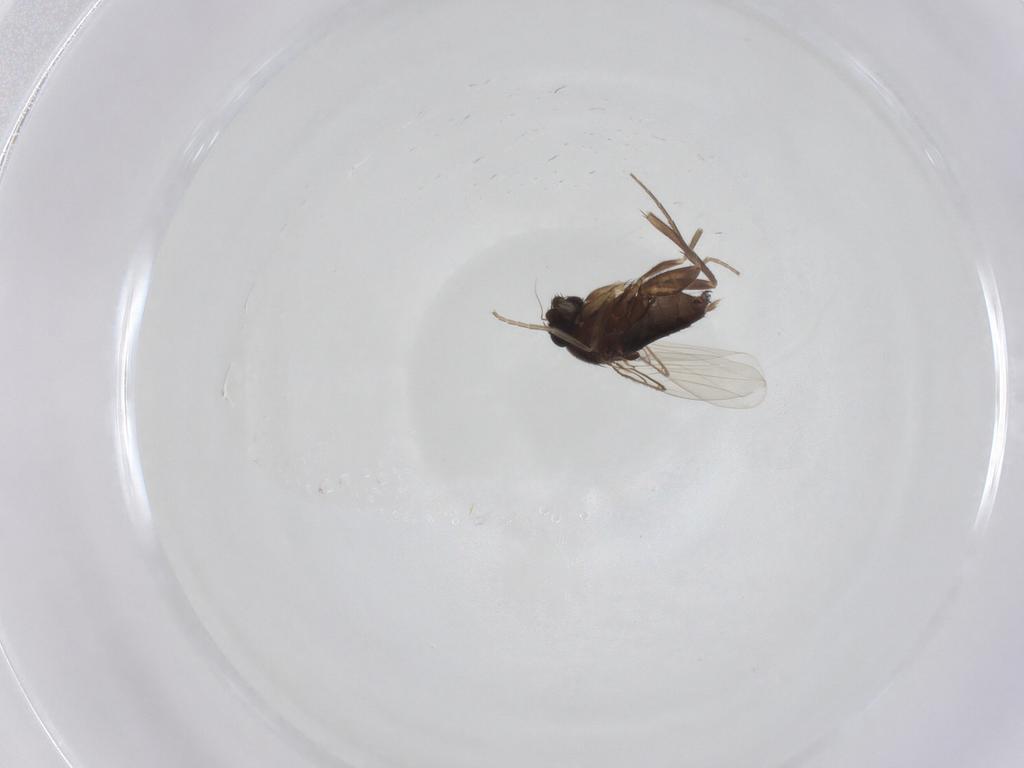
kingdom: Animalia
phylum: Arthropoda
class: Insecta
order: Diptera
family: Phoridae
